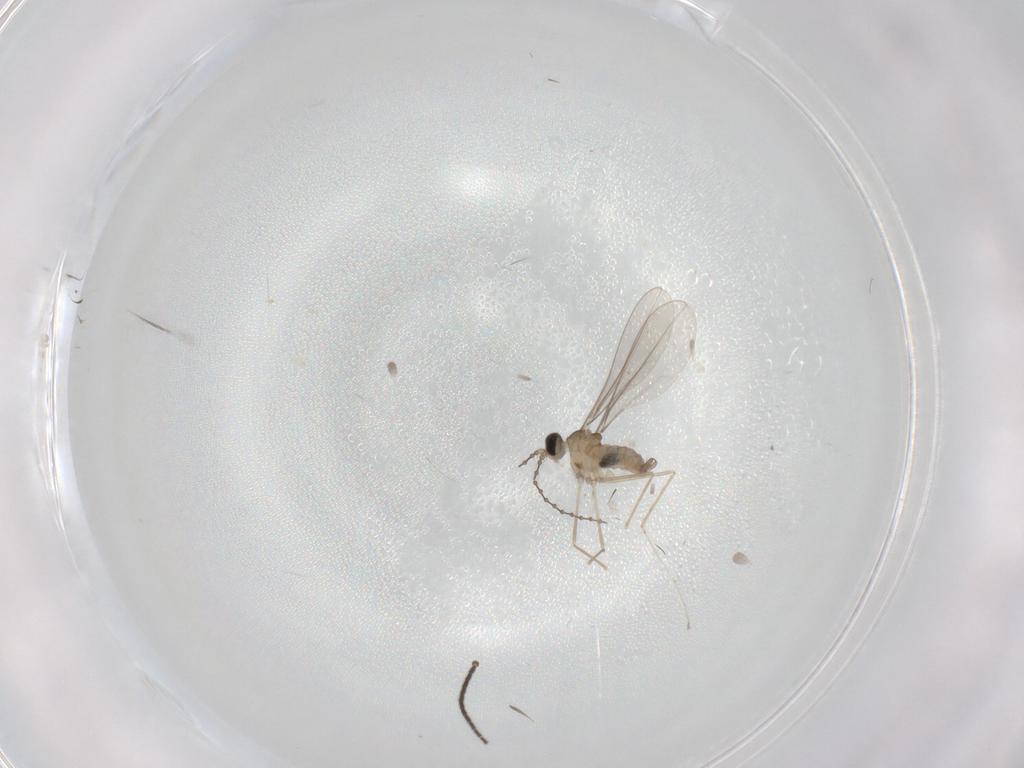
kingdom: Animalia
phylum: Arthropoda
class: Insecta
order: Diptera
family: Sciaridae
